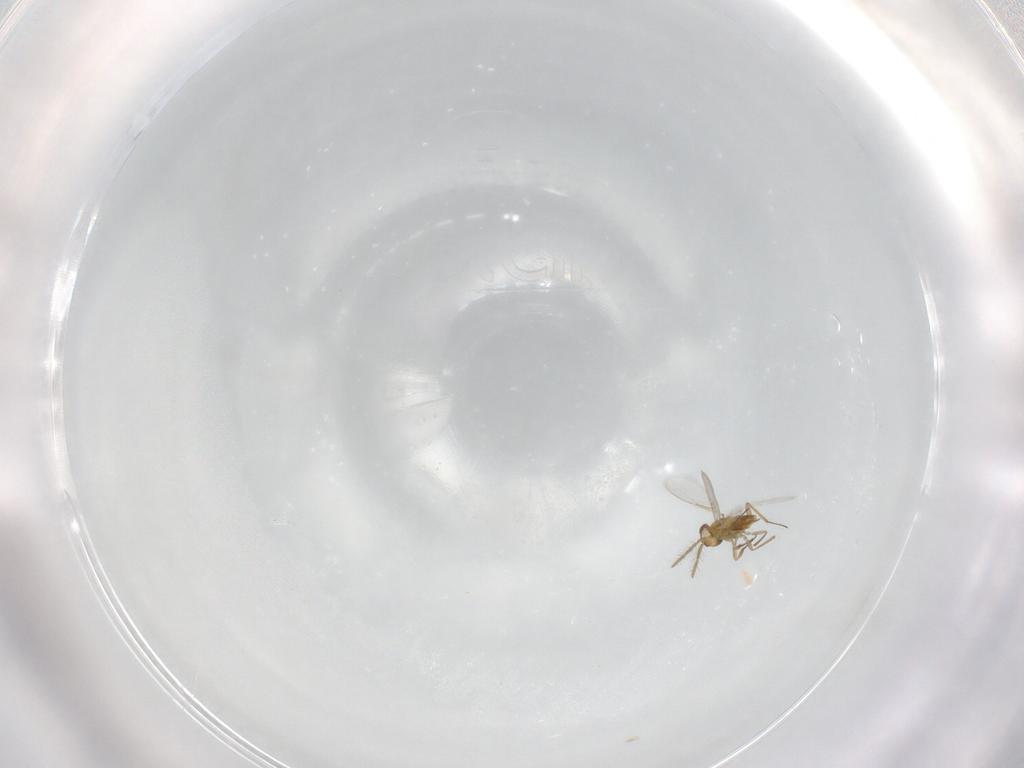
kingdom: Animalia
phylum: Arthropoda
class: Insecta
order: Hymenoptera
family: Aphelinidae
